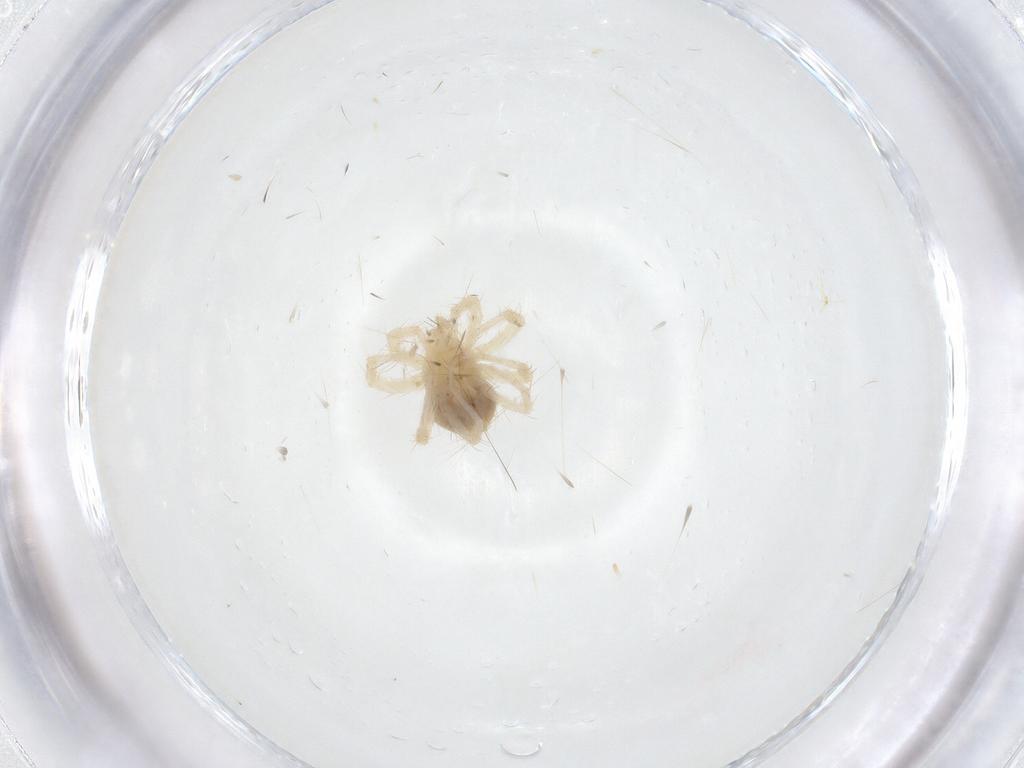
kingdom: Animalia
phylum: Arthropoda
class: Arachnida
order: Trombidiformes
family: Anystidae
